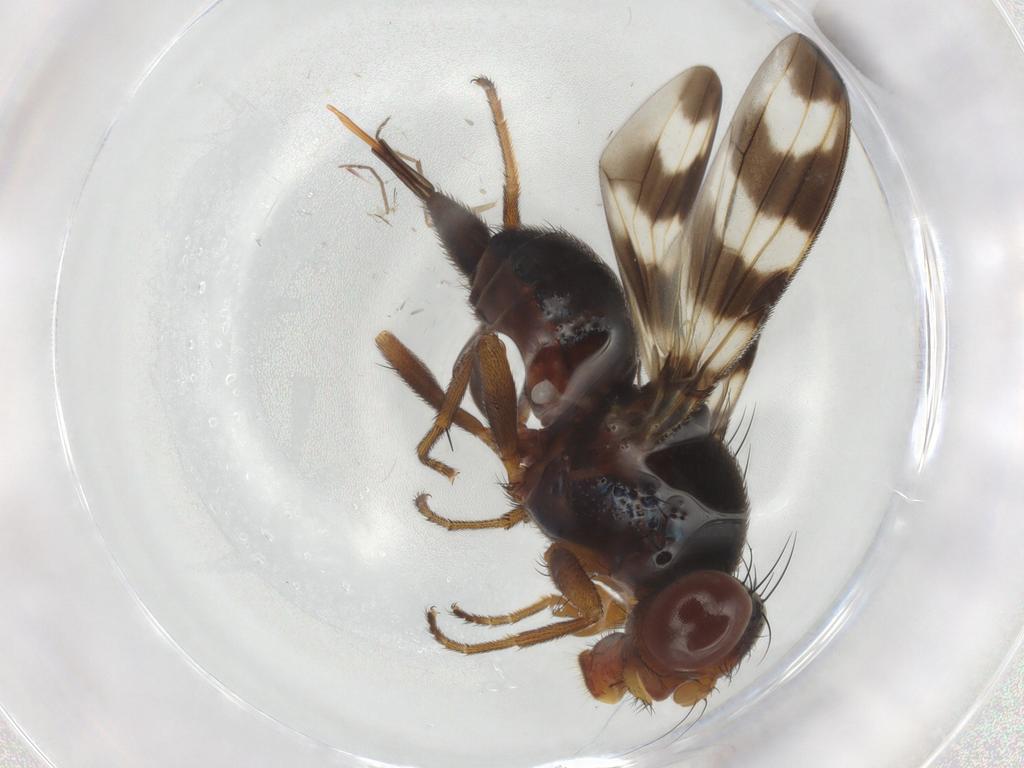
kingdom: Animalia
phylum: Arthropoda
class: Insecta
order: Diptera
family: Ulidiidae
